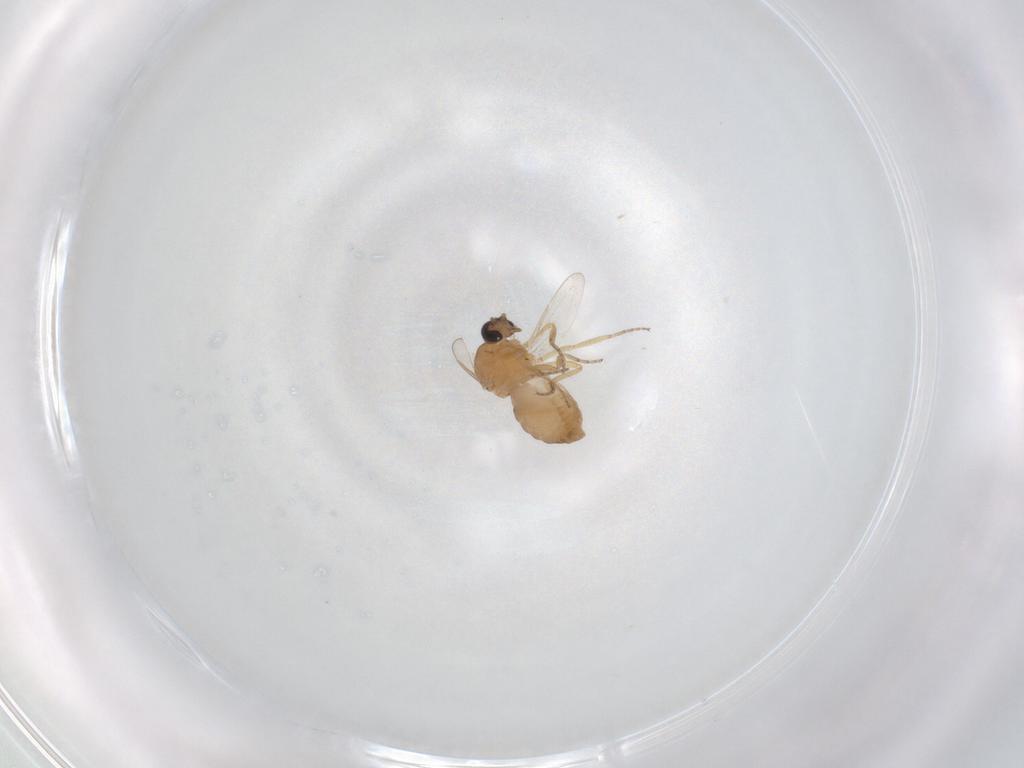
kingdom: Animalia
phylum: Arthropoda
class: Insecta
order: Diptera
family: Ceratopogonidae
